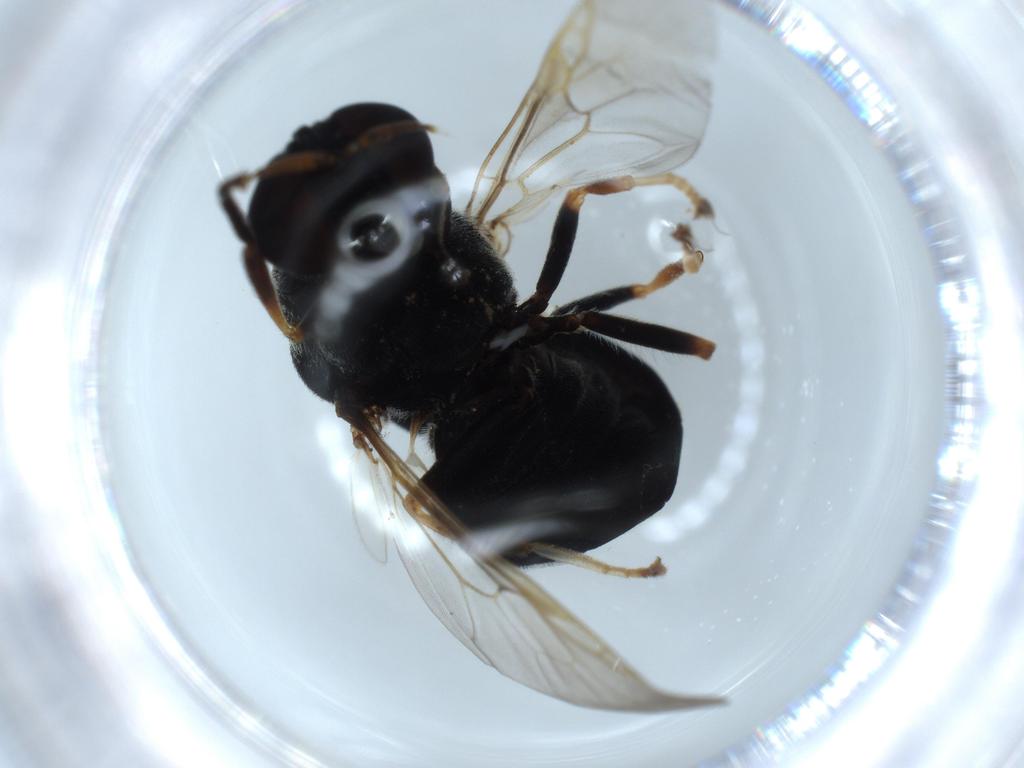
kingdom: Animalia
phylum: Arthropoda
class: Insecta
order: Diptera
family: Stratiomyidae
